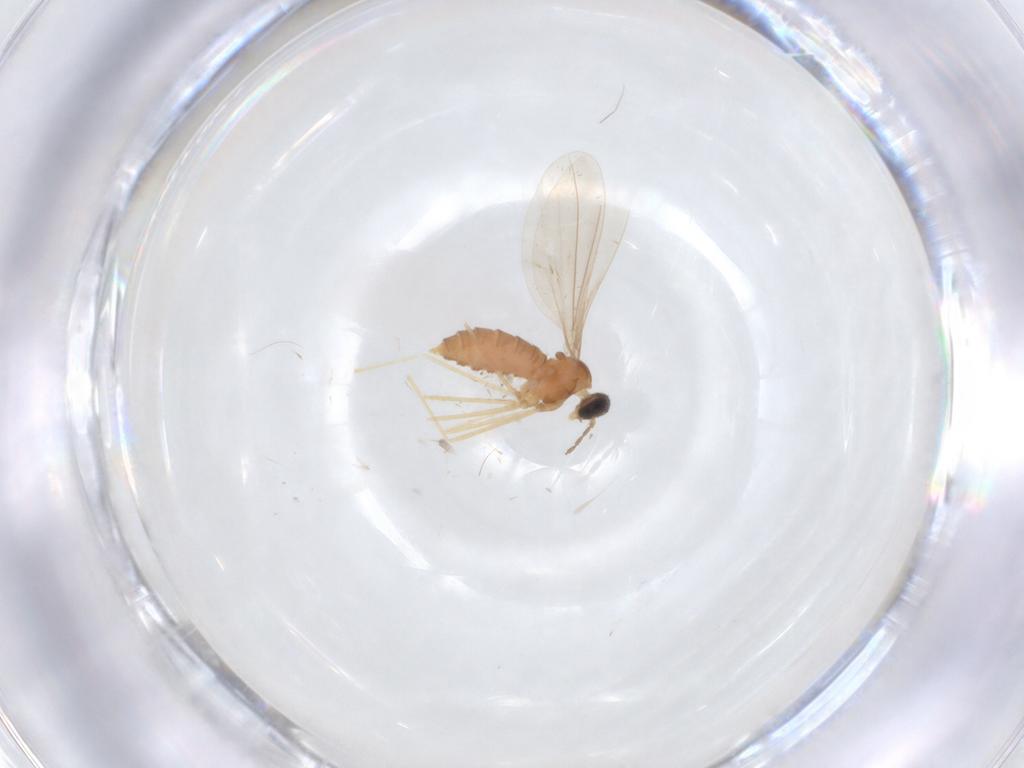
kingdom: Animalia
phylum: Arthropoda
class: Insecta
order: Diptera
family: Cecidomyiidae
